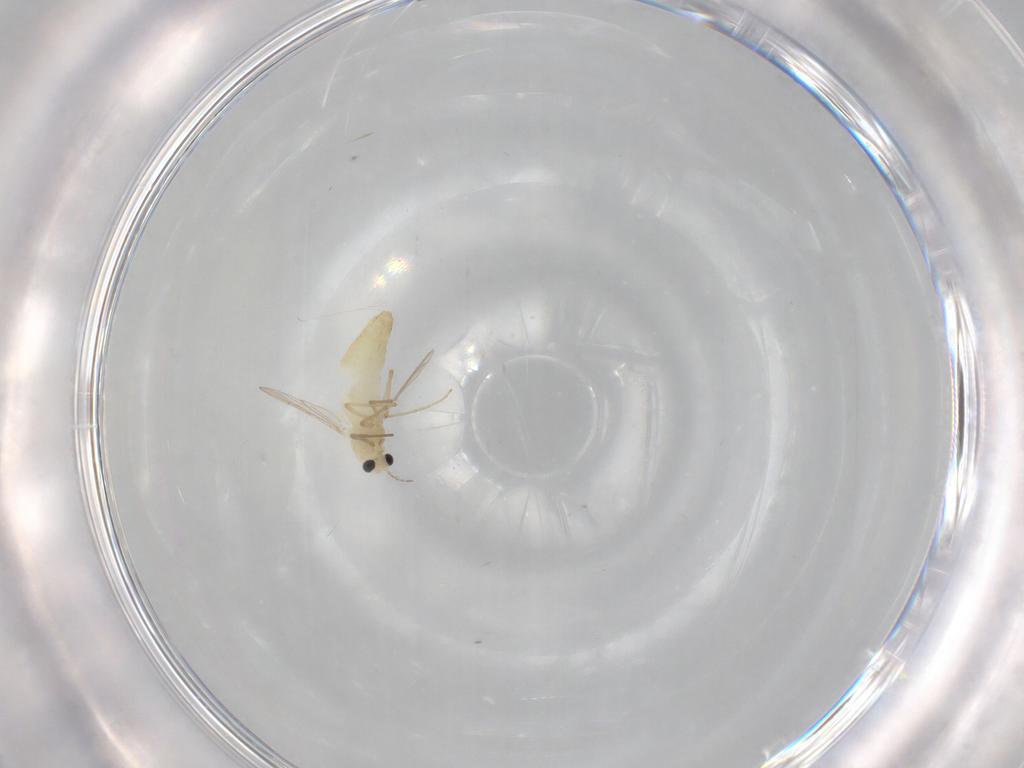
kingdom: Animalia
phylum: Arthropoda
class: Insecta
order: Diptera
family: Chironomidae
